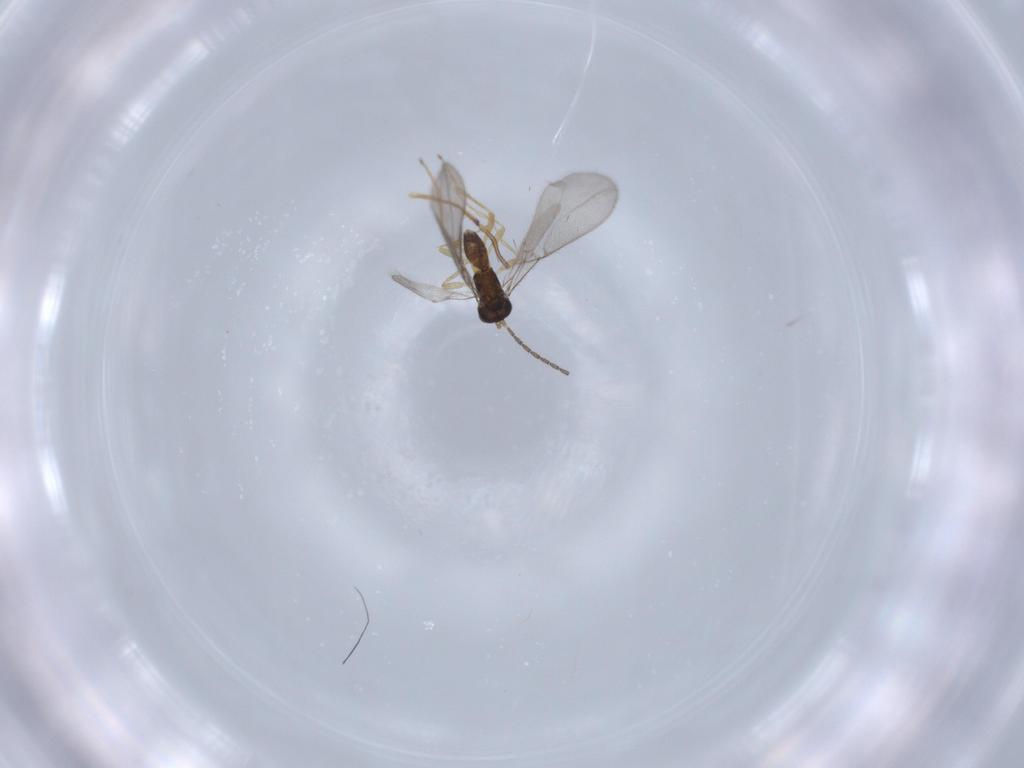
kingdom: Animalia
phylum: Arthropoda
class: Insecta
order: Hymenoptera
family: Braconidae
